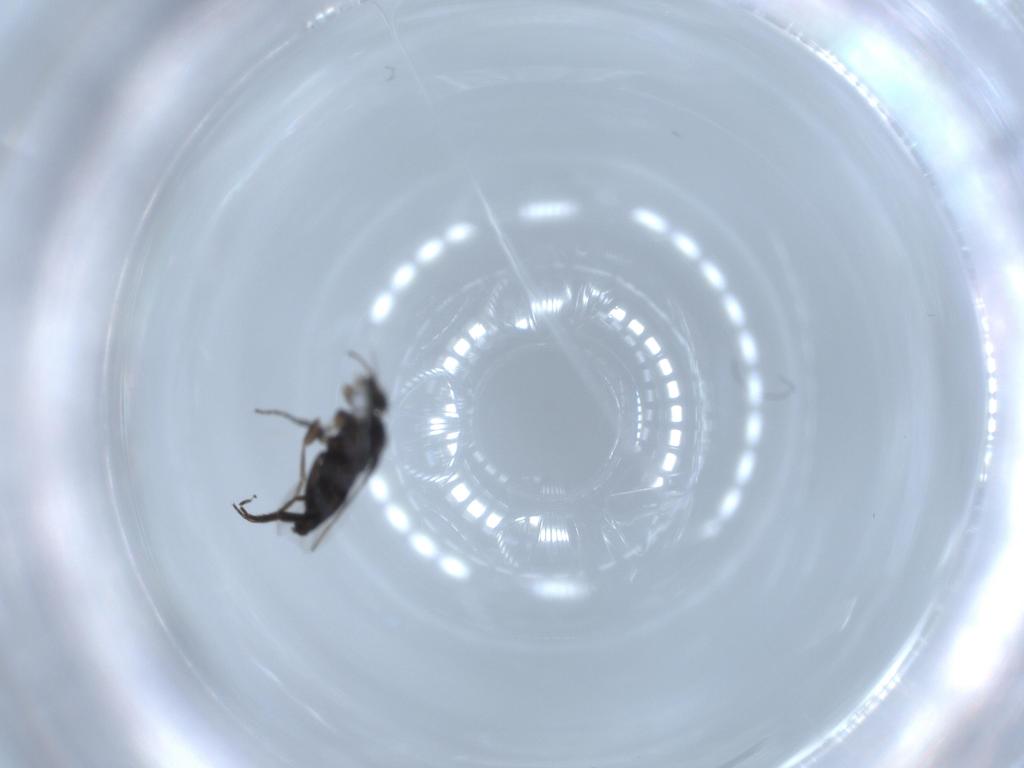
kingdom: Animalia
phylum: Arthropoda
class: Insecta
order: Diptera
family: Phoridae
